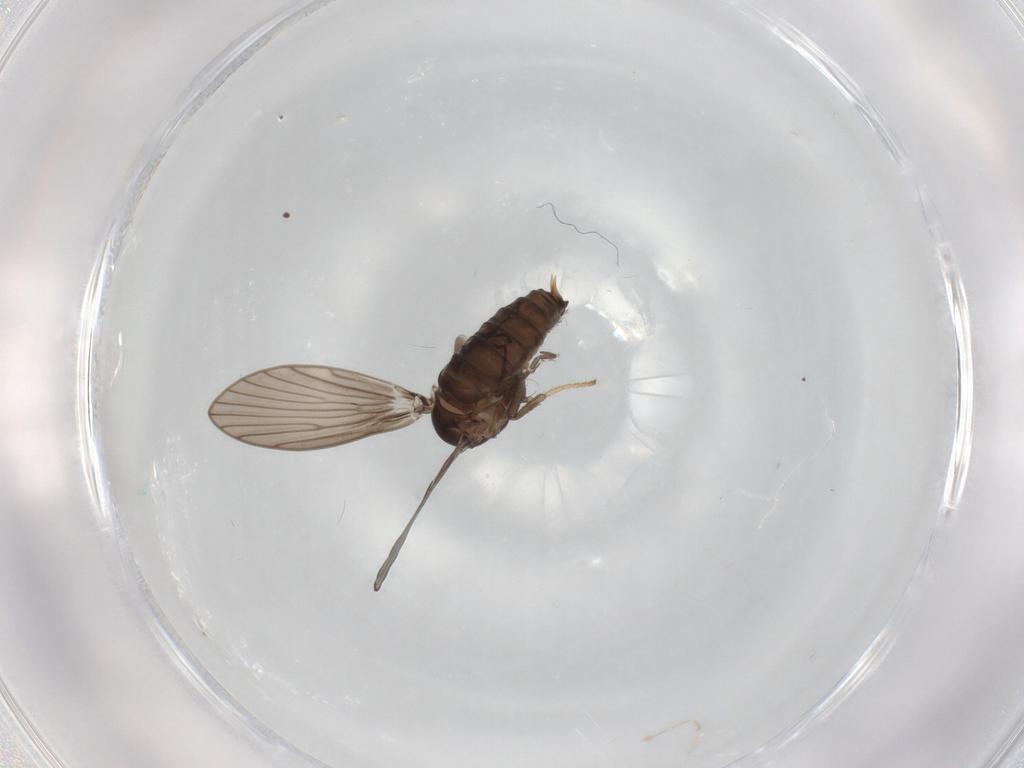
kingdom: Animalia
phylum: Arthropoda
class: Insecta
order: Diptera
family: Psychodidae
